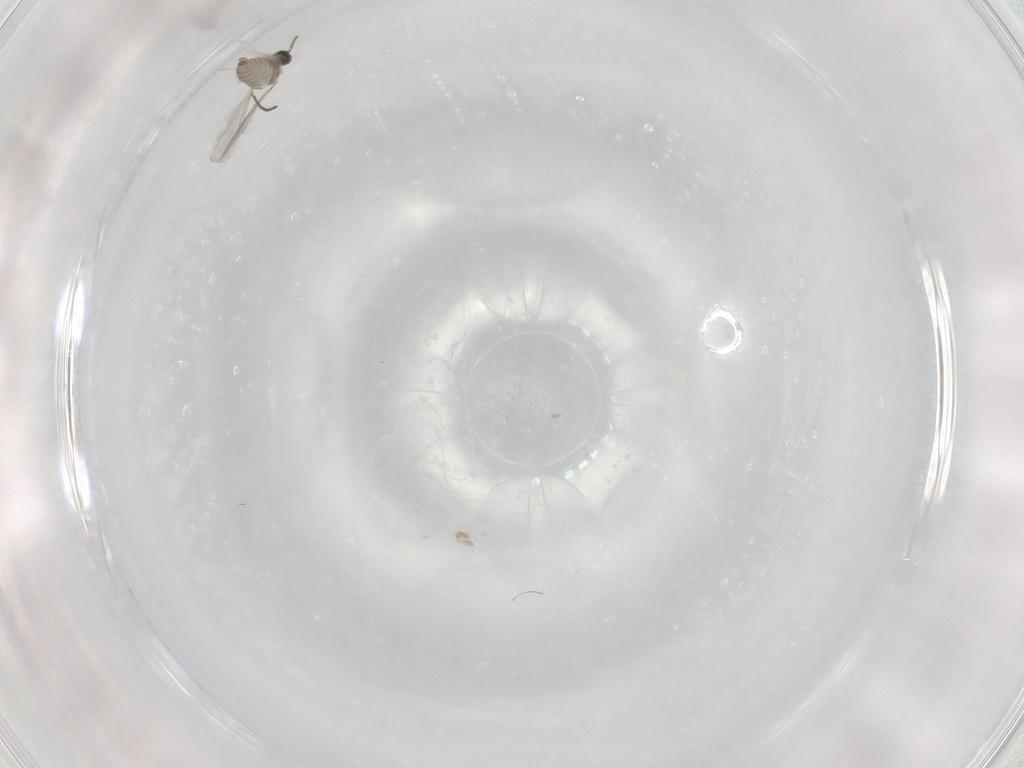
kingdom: Animalia
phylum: Arthropoda
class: Insecta
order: Diptera
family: Cecidomyiidae
